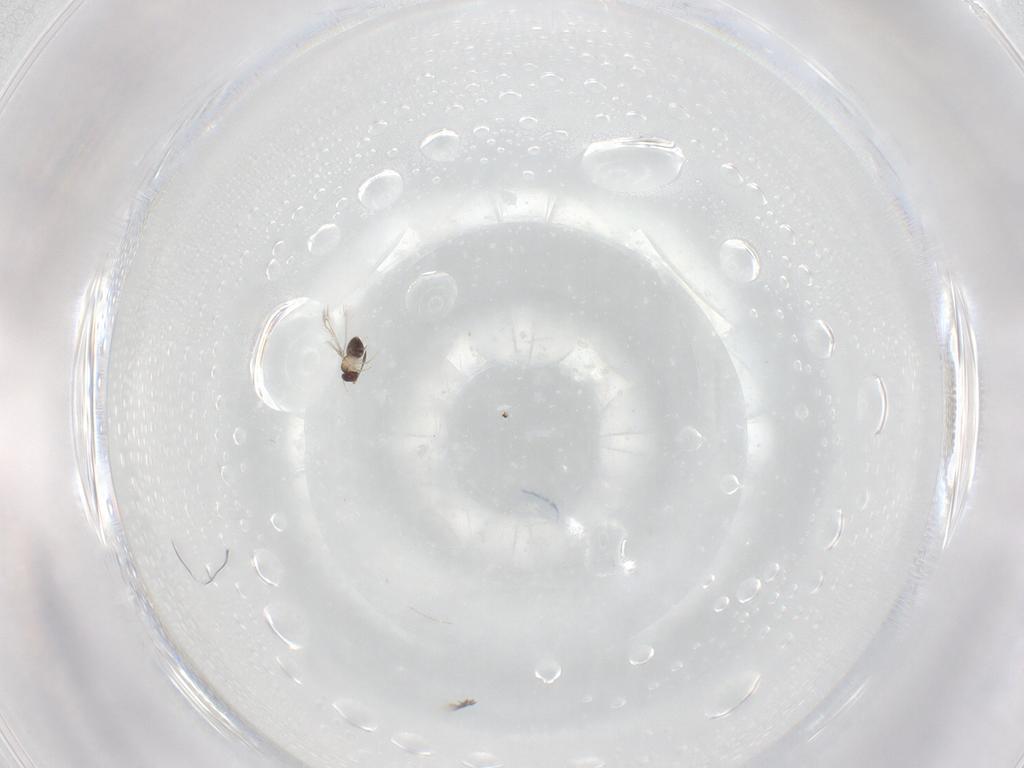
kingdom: Animalia
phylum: Arthropoda
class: Insecta
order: Hymenoptera
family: Mymaridae
